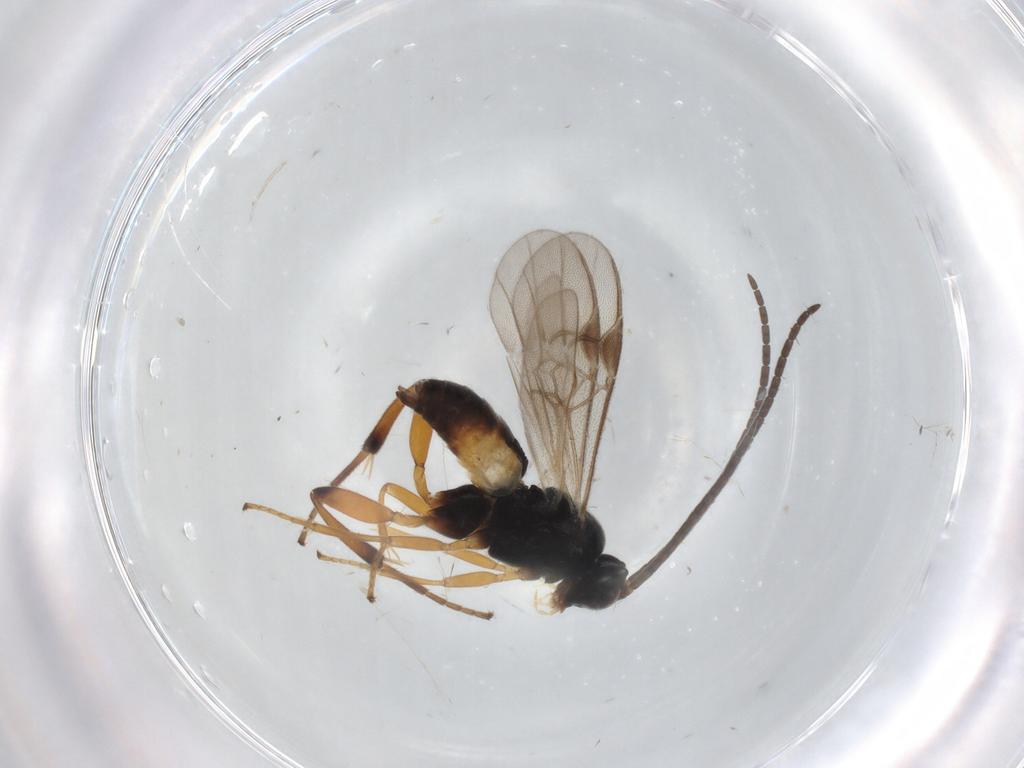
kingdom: Animalia
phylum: Arthropoda
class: Insecta
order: Hymenoptera
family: Braconidae
